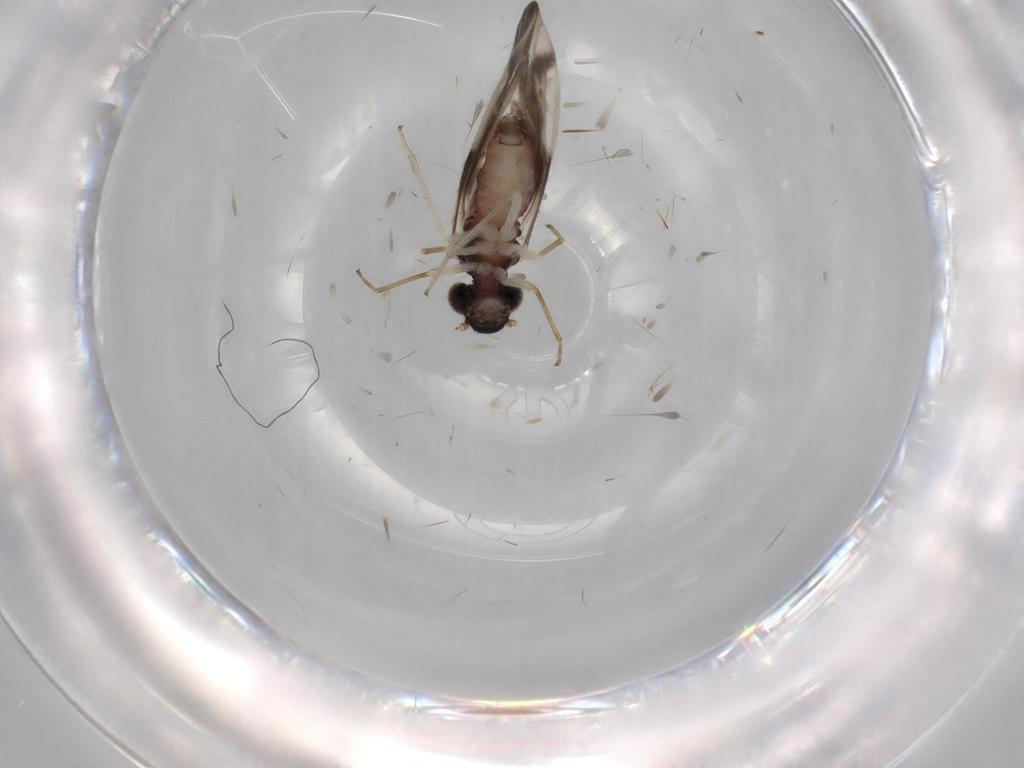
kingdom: Animalia
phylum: Arthropoda
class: Insecta
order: Psocodea
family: Caeciliusidae
